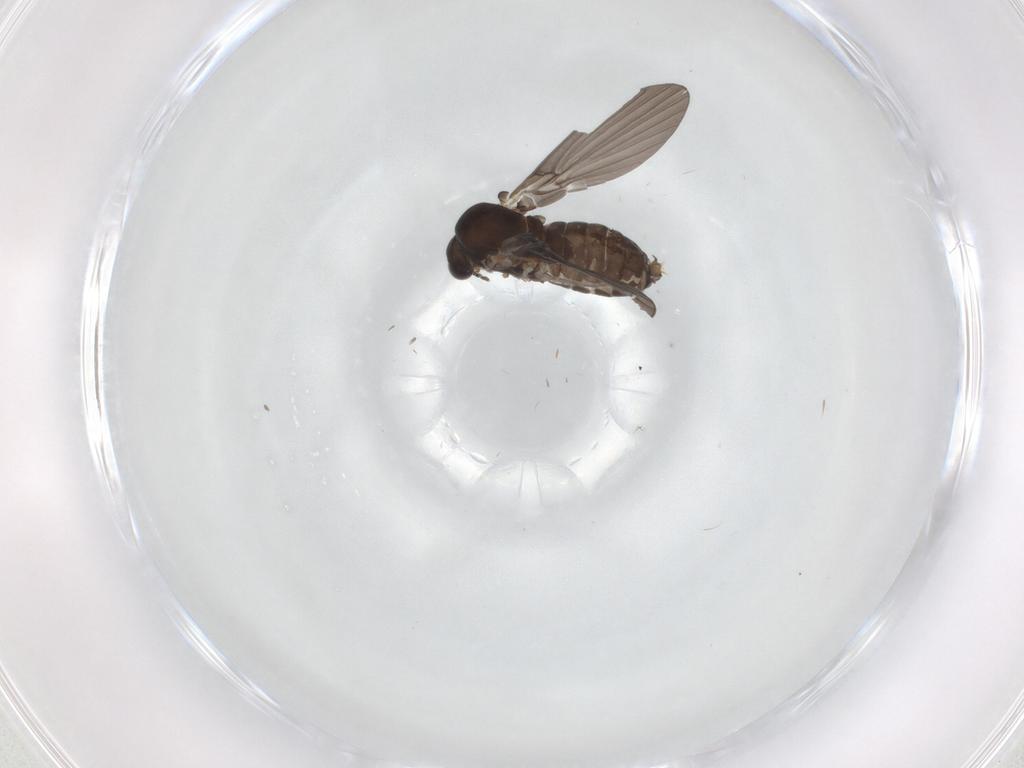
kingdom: Animalia
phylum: Arthropoda
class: Insecta
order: Diptera
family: Psychodidae
